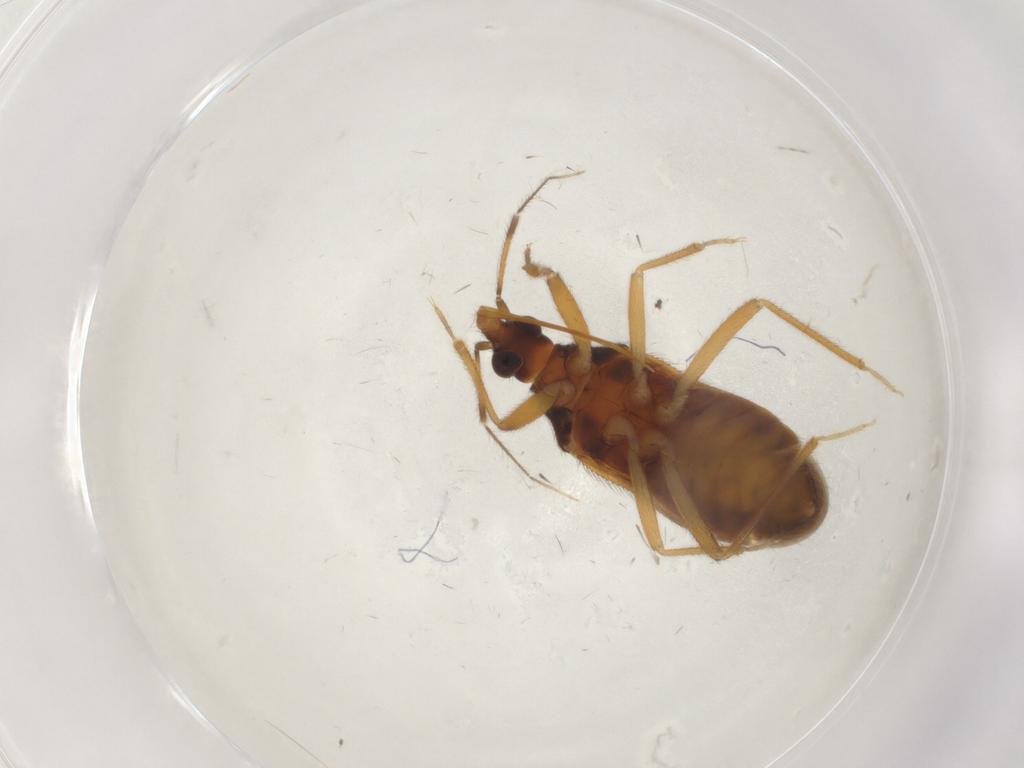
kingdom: Animalia
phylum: Arthropoda
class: Insecta
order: Hemiptera
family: Anthocoridae
